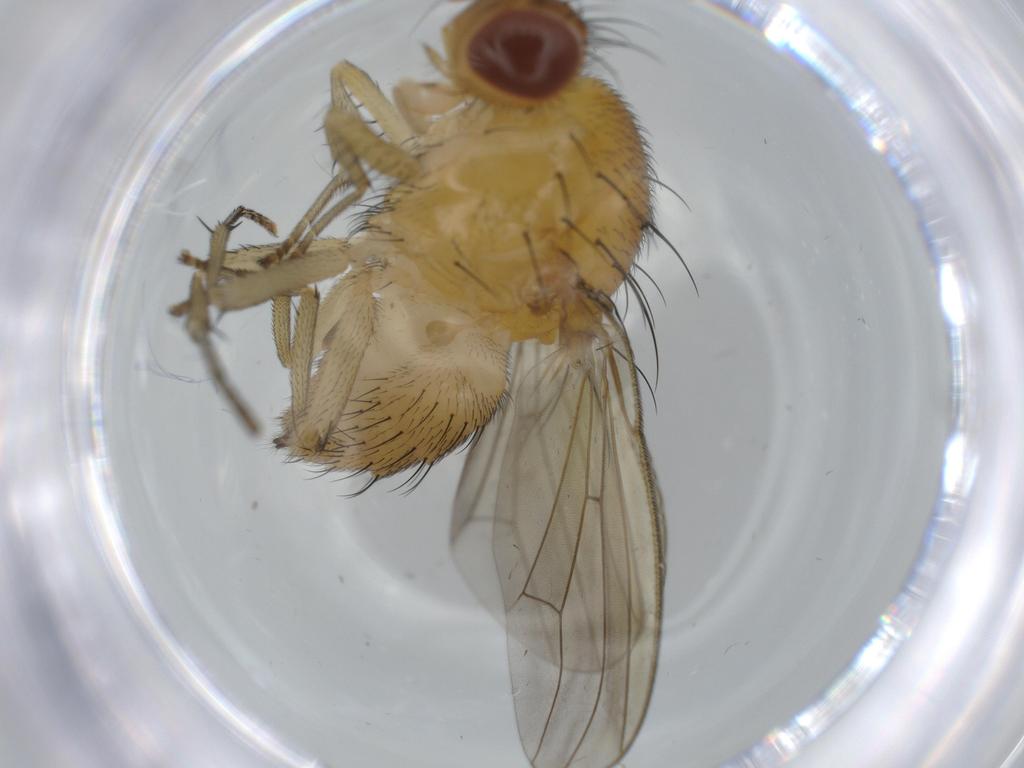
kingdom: Animalia
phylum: Arthropoda
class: Insecta
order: Diptera
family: Sciaridae
